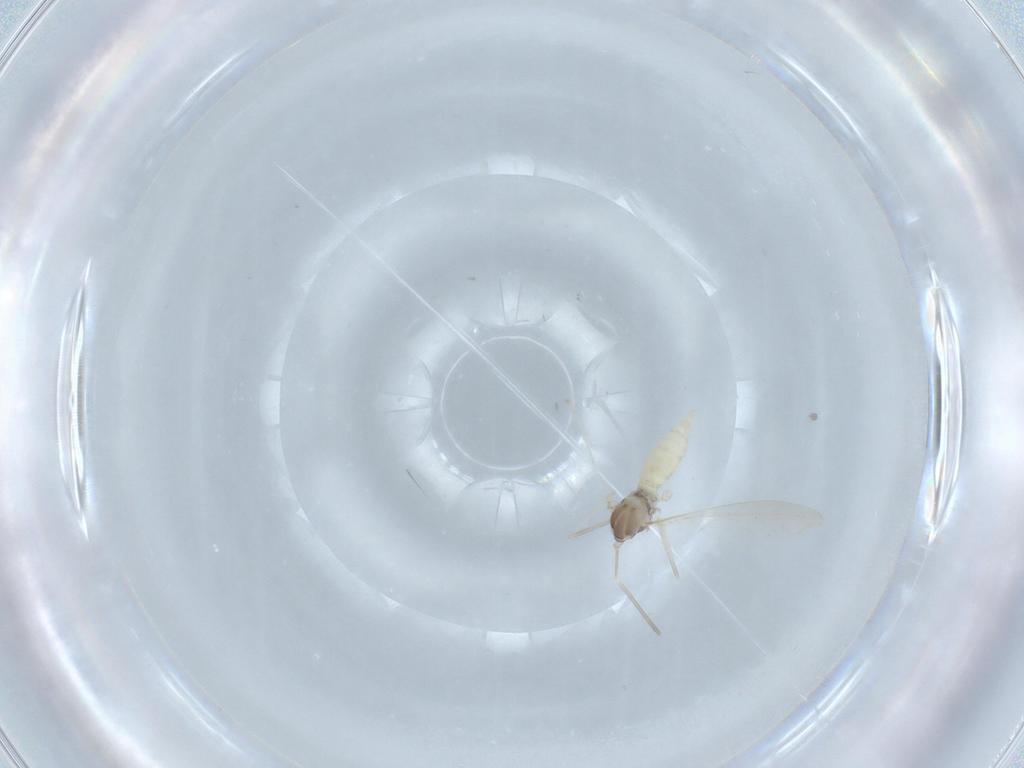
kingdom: Animalia
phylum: Arthropoda
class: Insecta
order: Diptera
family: Cecidomyiidae
